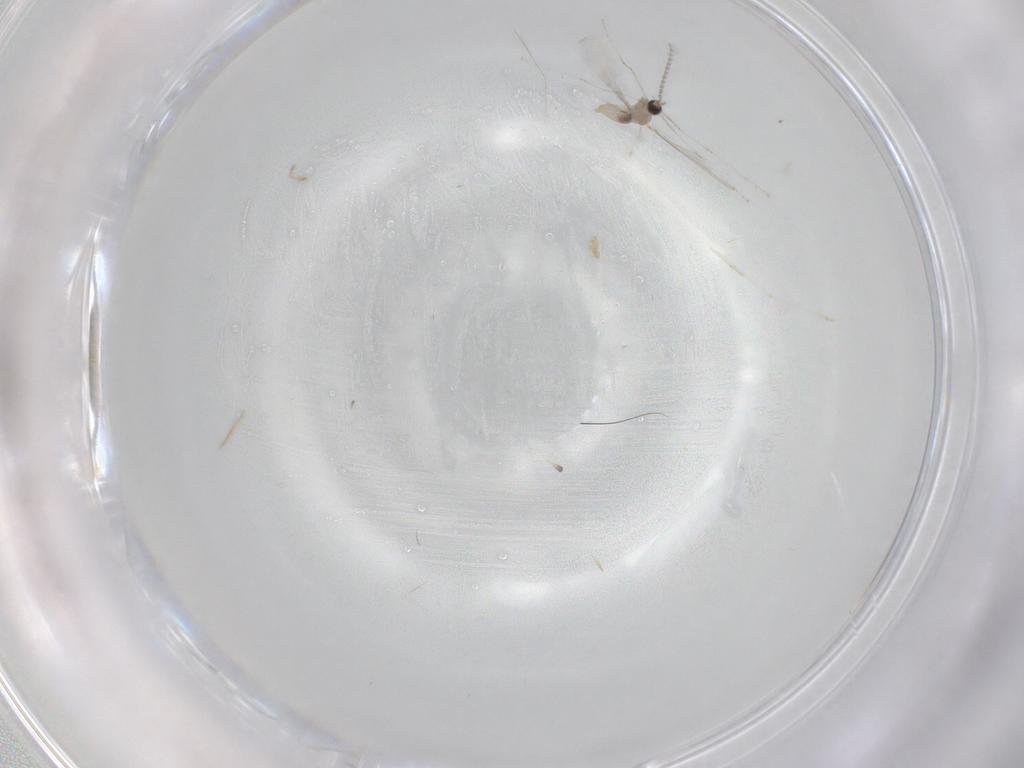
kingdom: Animalia
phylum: Arthropoda
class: Insecta
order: Diptera
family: Cecidomyiidae
